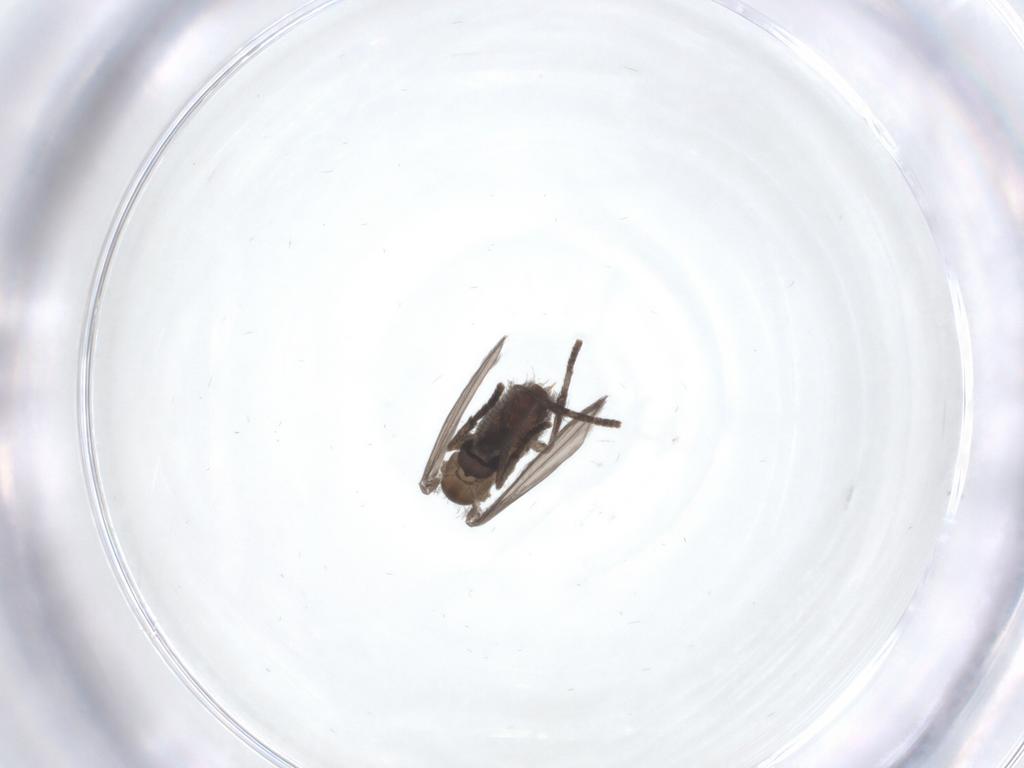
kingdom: Animalia
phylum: Arthropoda
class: Insecta
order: Diptera
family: Psychodidae
